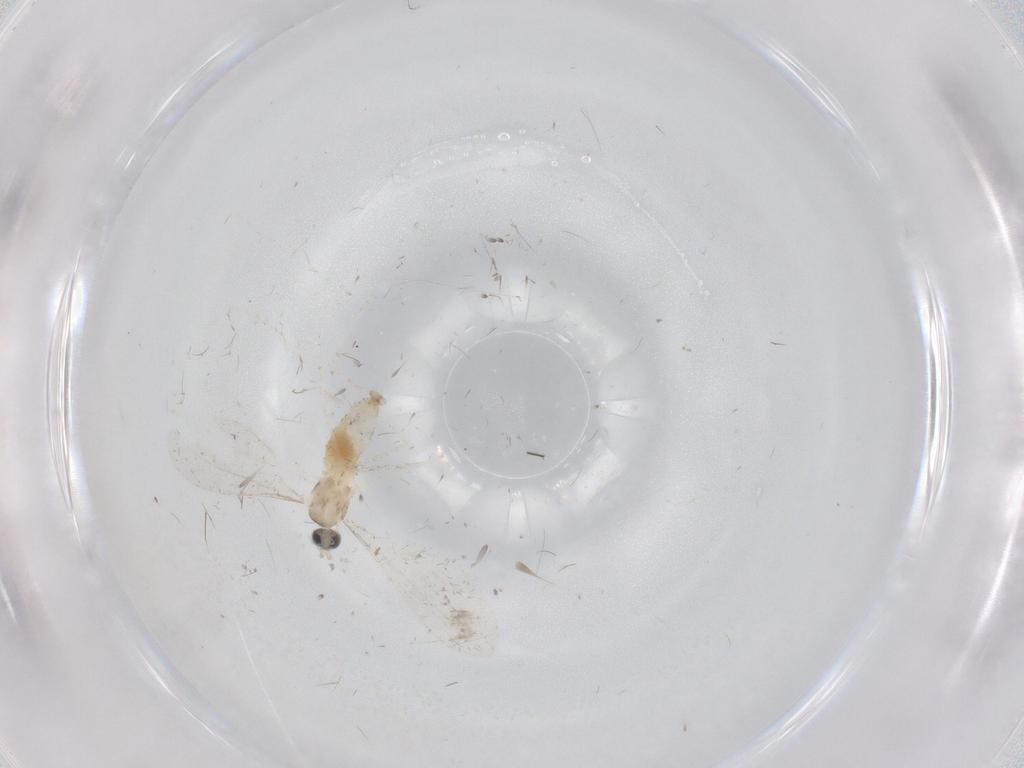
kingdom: Animalia
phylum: Arthropoda
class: Insecta
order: Diptera
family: Cecidomyiidae
